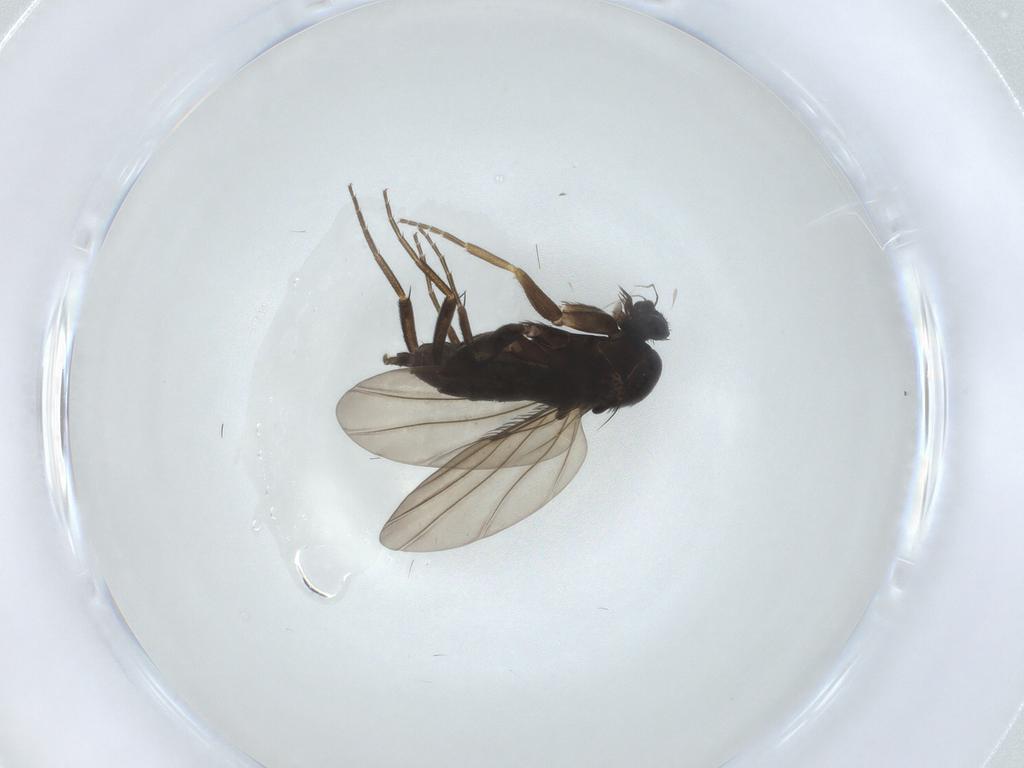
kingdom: Animalia
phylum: Arthropoda
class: Insecta
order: Diptera
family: Phoridae
